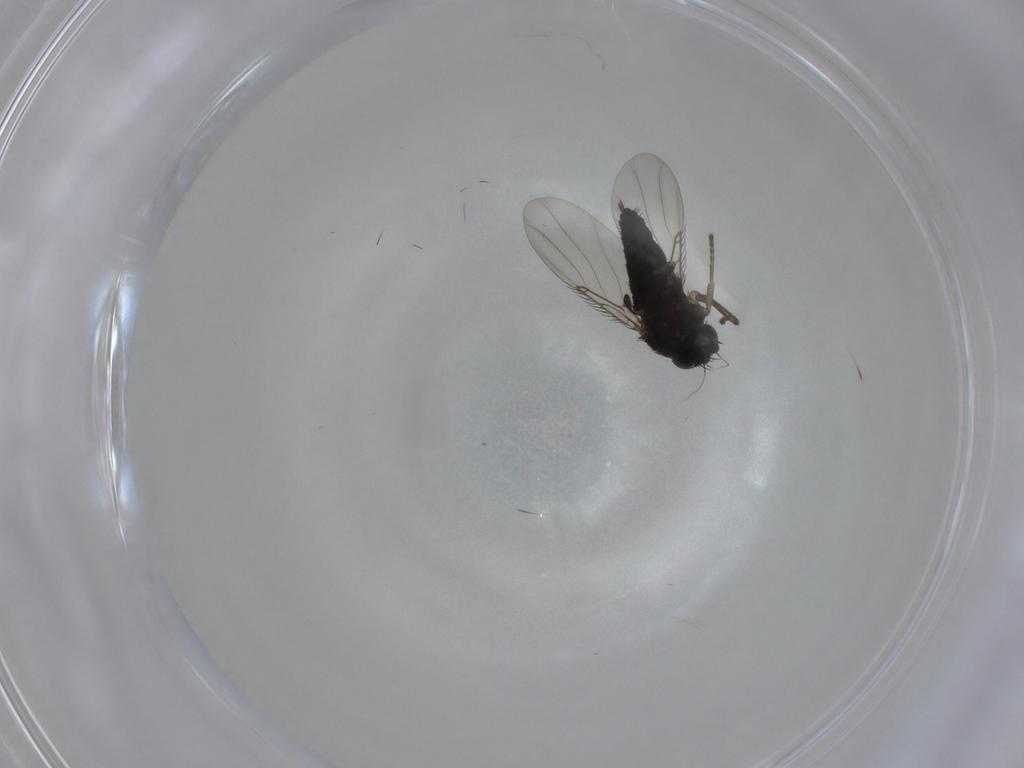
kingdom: Animalia
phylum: Arthropoda
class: Insecta
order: Diptera
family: Phoridae
